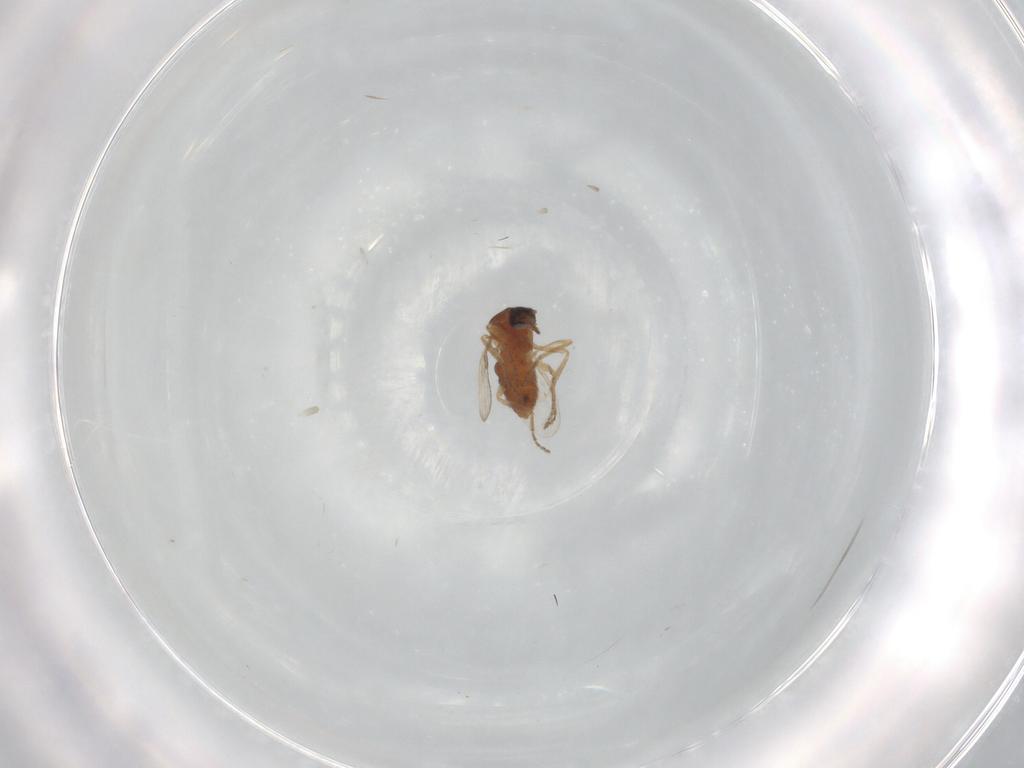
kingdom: Animalia
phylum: Arthropoda
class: Insecta
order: Diptera
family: Ceratopogonidae
